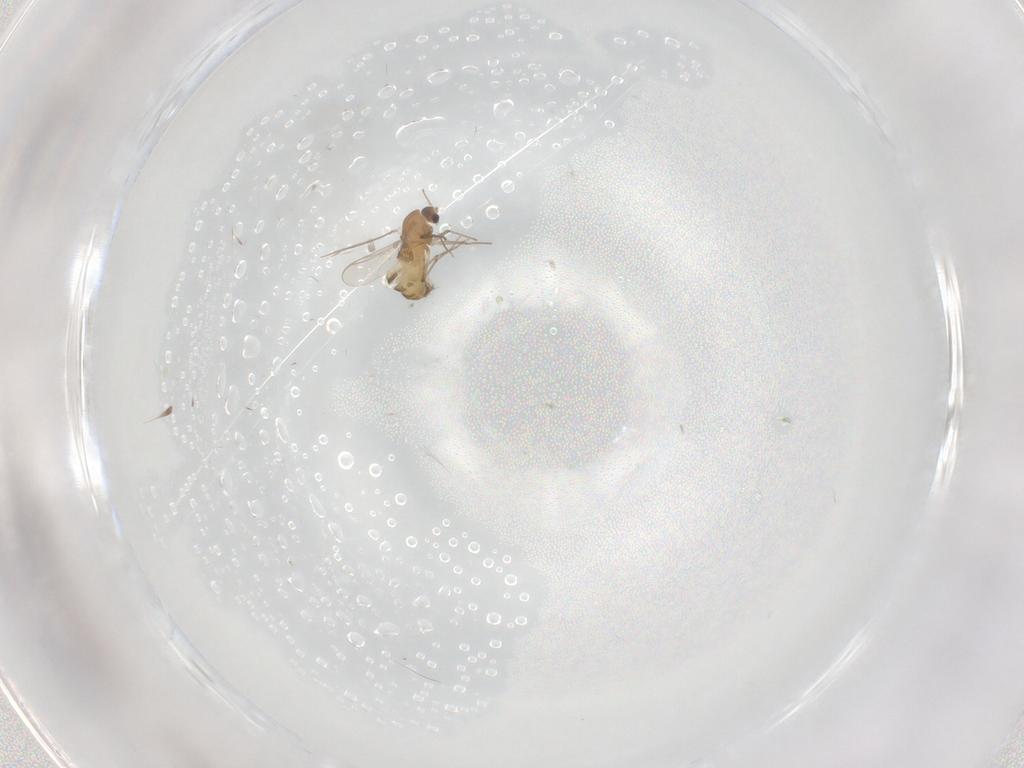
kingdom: Animalia
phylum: Arthropoda
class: Insecta
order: Diptera
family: Chironomidae
